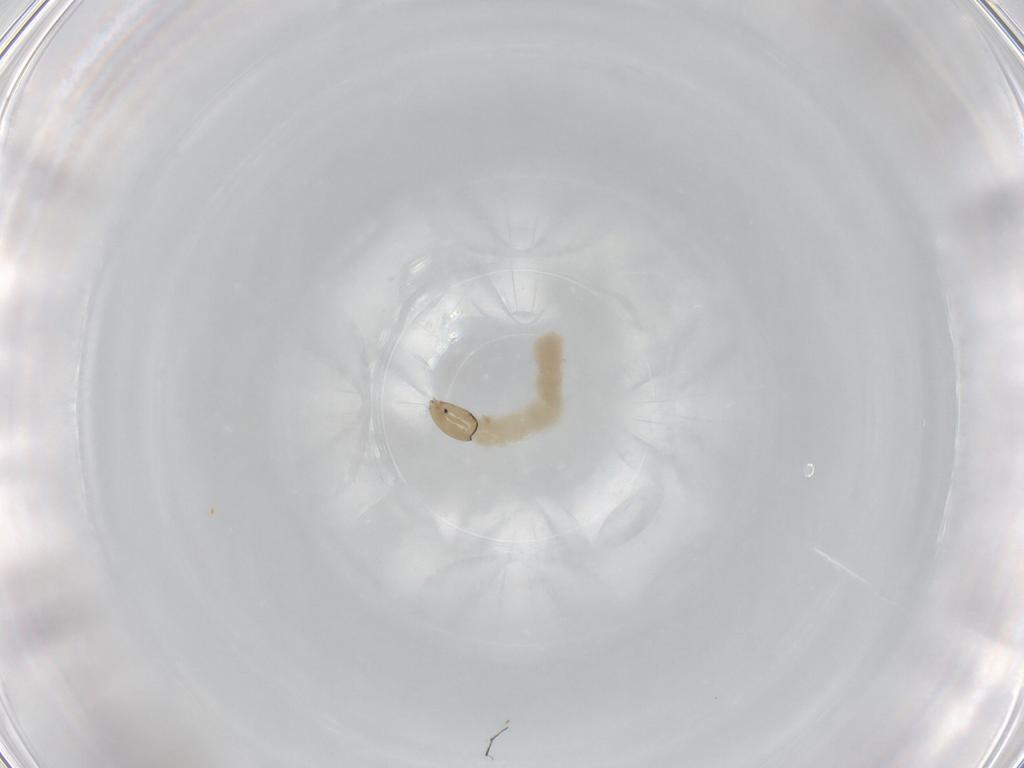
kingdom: Animalia
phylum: Arthropoda
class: Insecta
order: Diptera
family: Chironomidae
